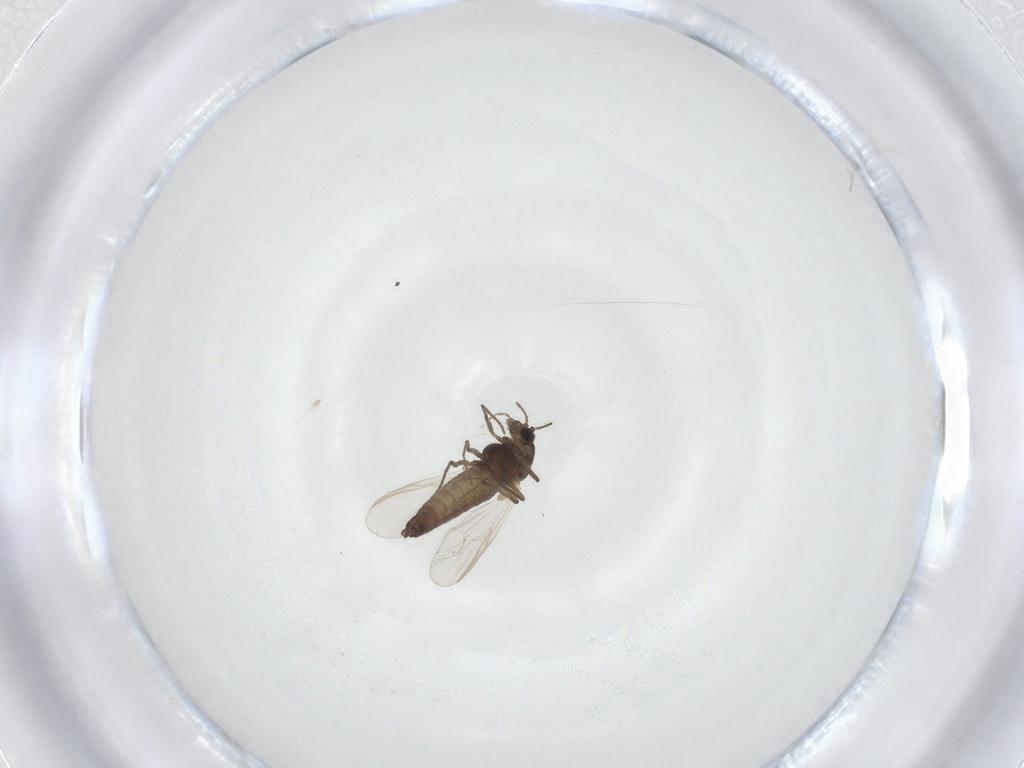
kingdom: Animalia
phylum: Arthropoda
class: Insecta
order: Diptera
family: Chironomidae
